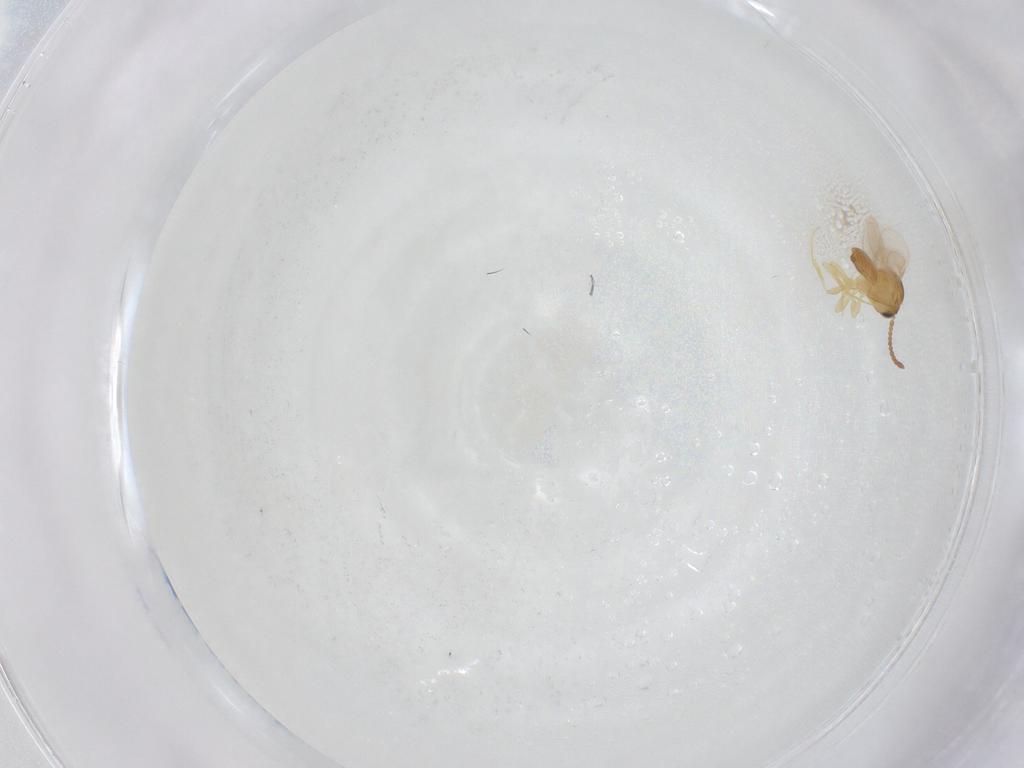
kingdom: Animalia
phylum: Arthropoda
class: Insecta
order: Hymenoptera
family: Scelionidae
